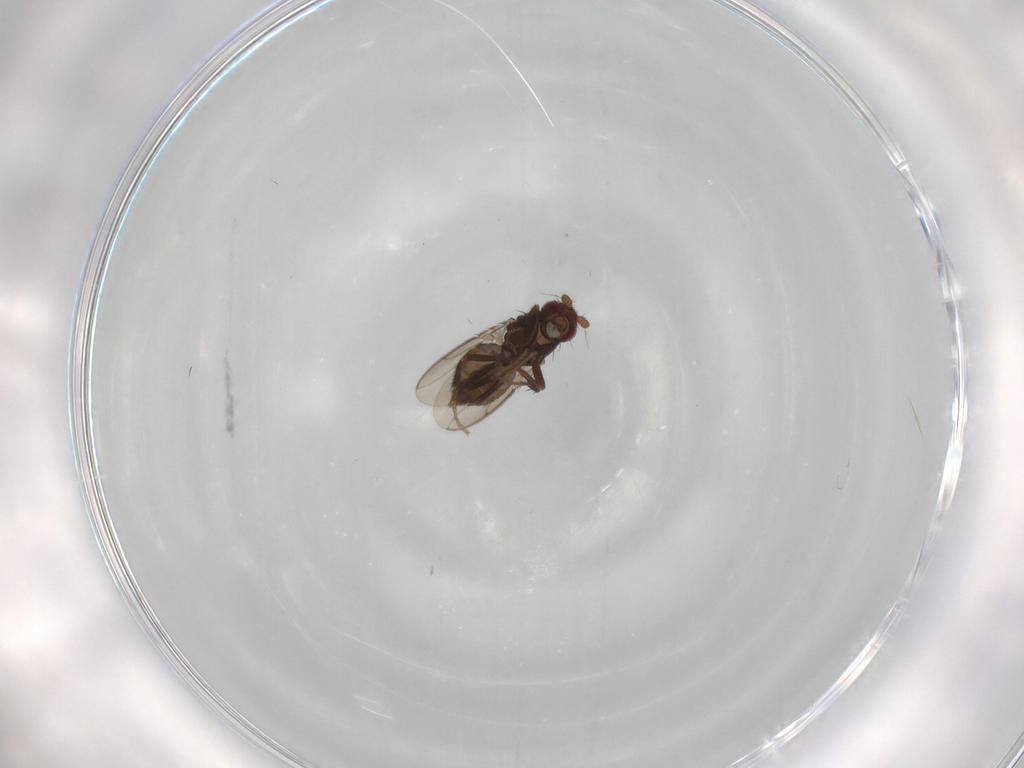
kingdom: Animalia
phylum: Arthropoda
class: Insecta
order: Diptera
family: Sphaeroceridae
